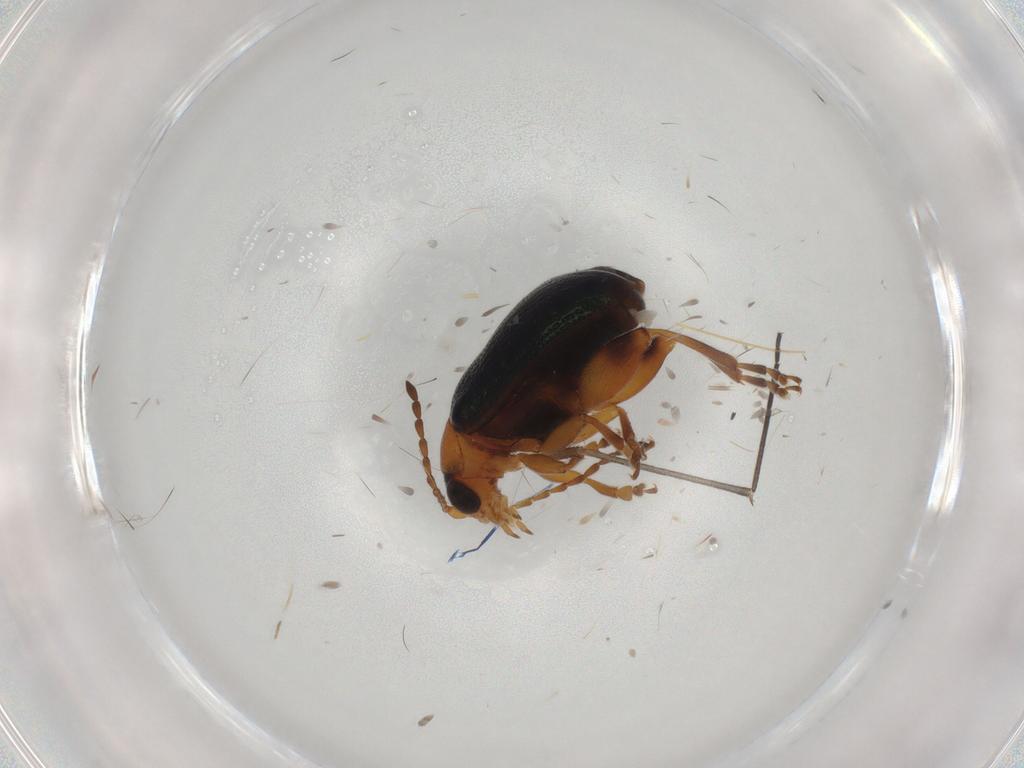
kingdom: Animalia
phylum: Arthropoda
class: Insecta
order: Coleoptera
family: Chrysomelidae
